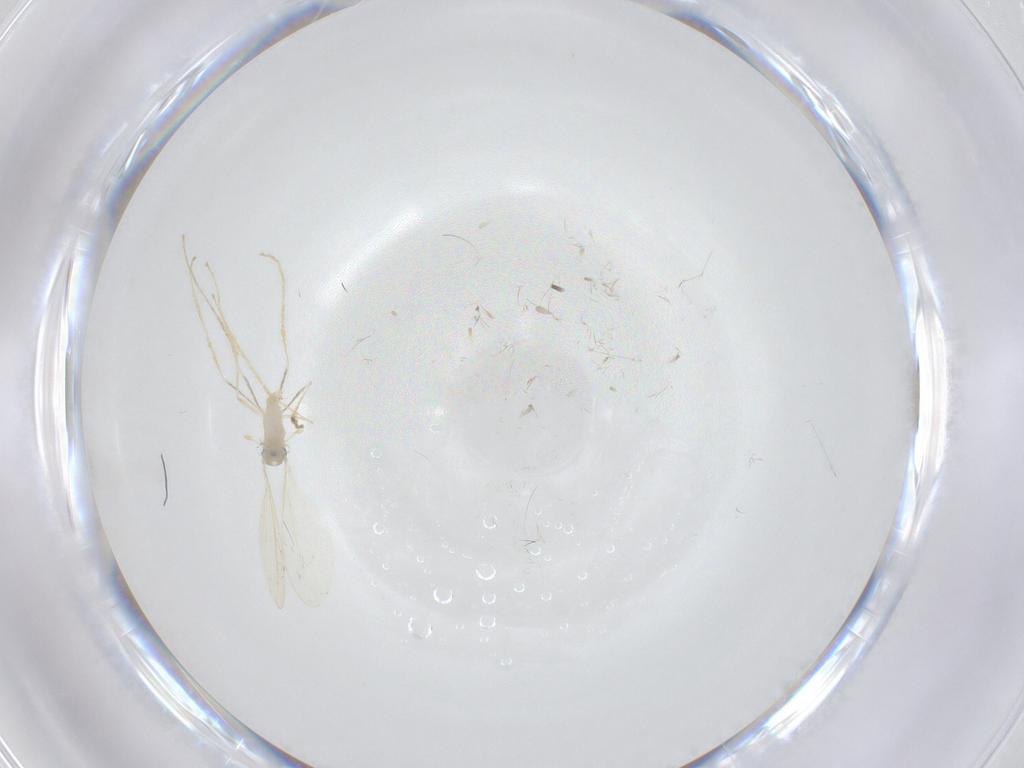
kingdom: Animalia
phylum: Arthropoda
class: Insecta
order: Diptera
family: Cecidomyiidae
